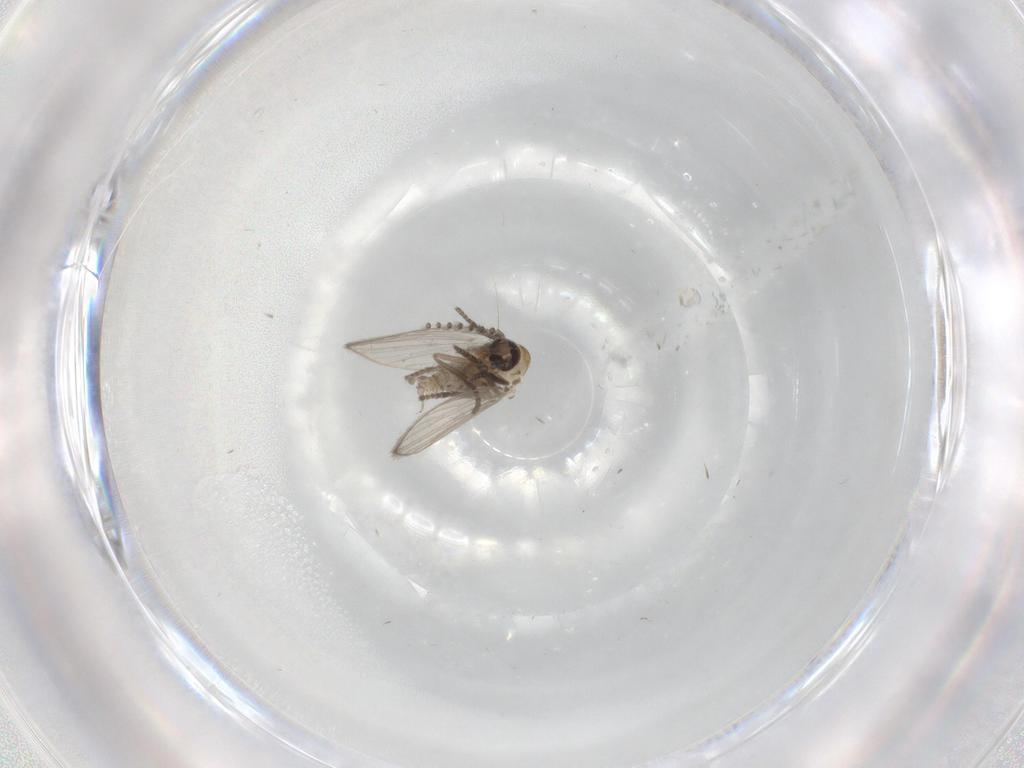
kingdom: Animalia
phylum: Arthropoda
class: Insecta
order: Diptera
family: Psychodidae
